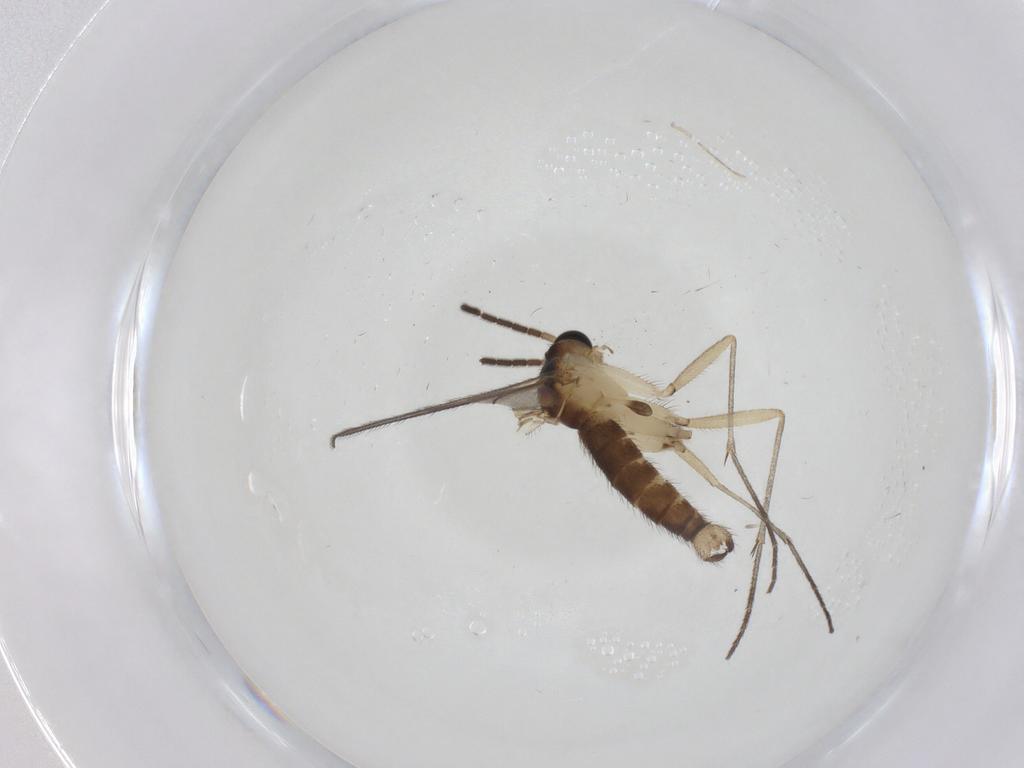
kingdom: Animalia
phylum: Arthropoda
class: Insecta
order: Diptera
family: Sciaridae
